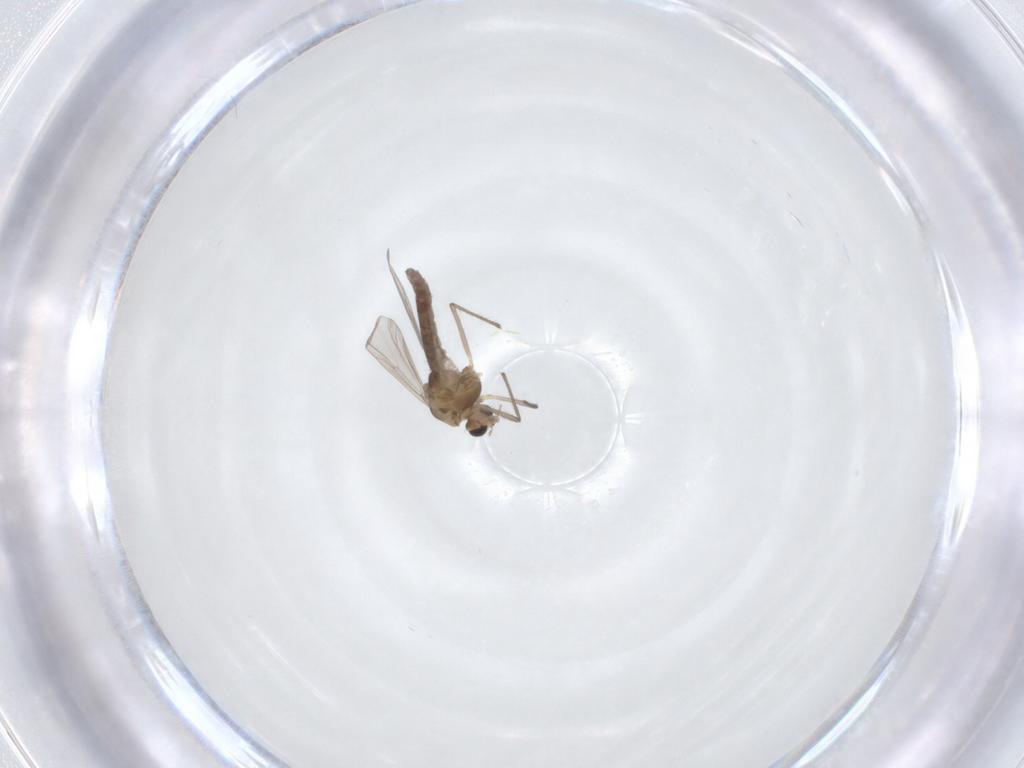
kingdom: Animalia
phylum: Arthropoda
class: Insecta
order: Diptera
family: Chironomidae
